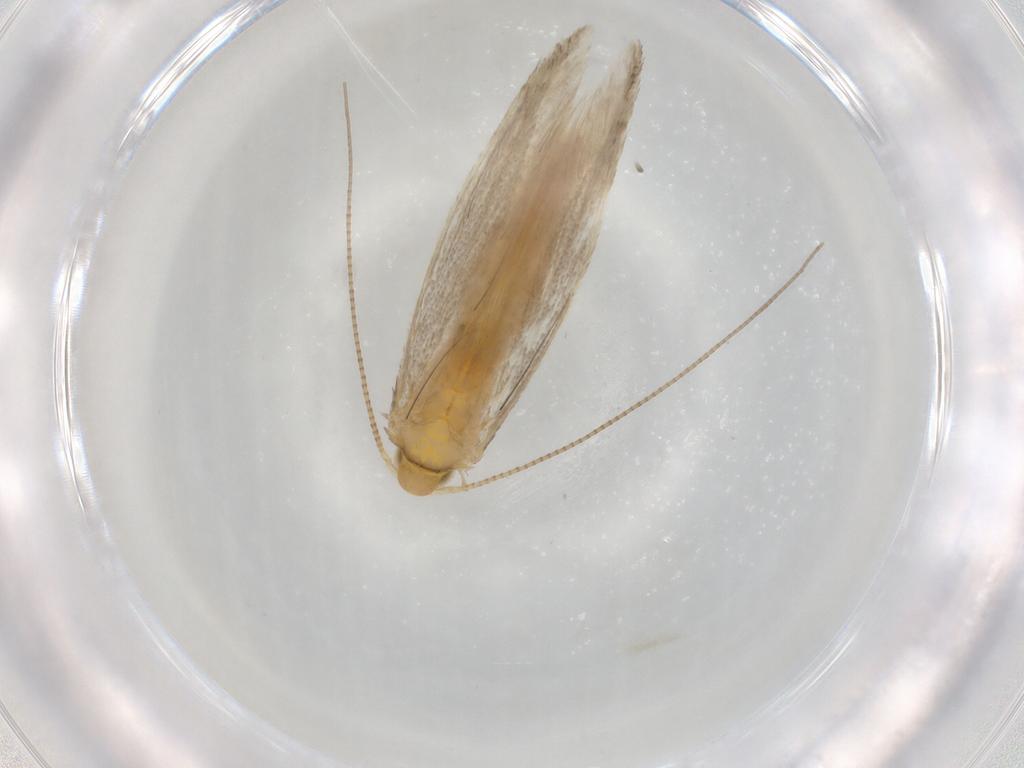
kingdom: Animalia
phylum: Arthropoda
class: Insecta
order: Lepidoptera
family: Gracillariidae
